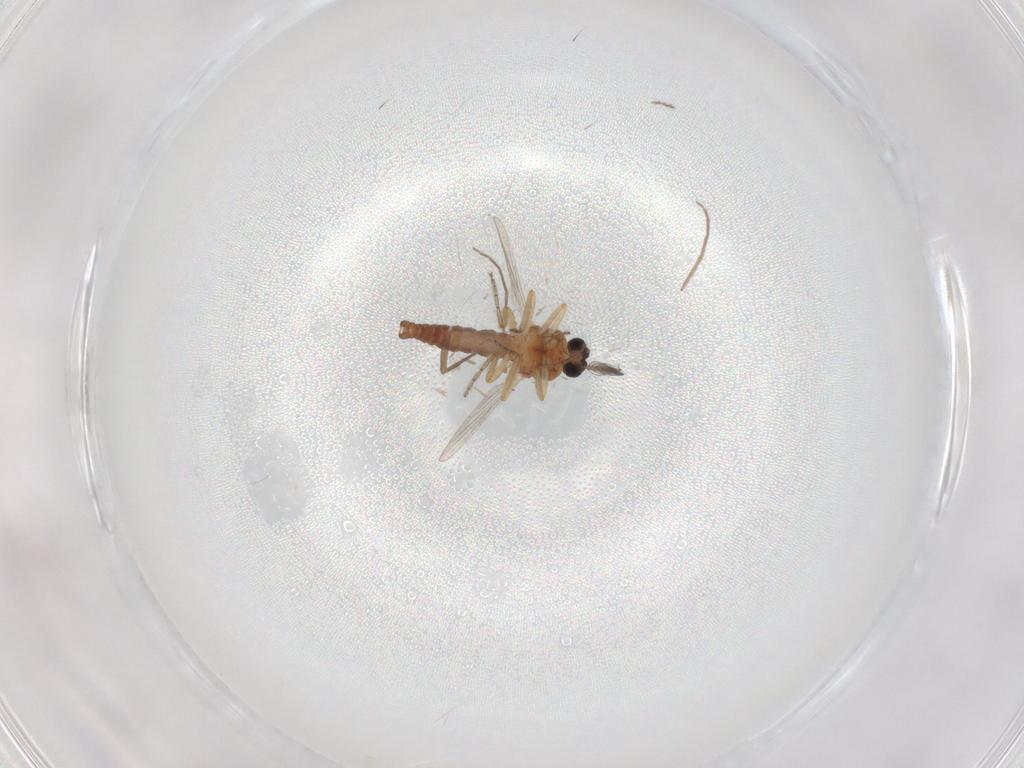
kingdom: Animalia
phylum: Arthropoda
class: Insecta
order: Diptera
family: Ceratopogonidae
